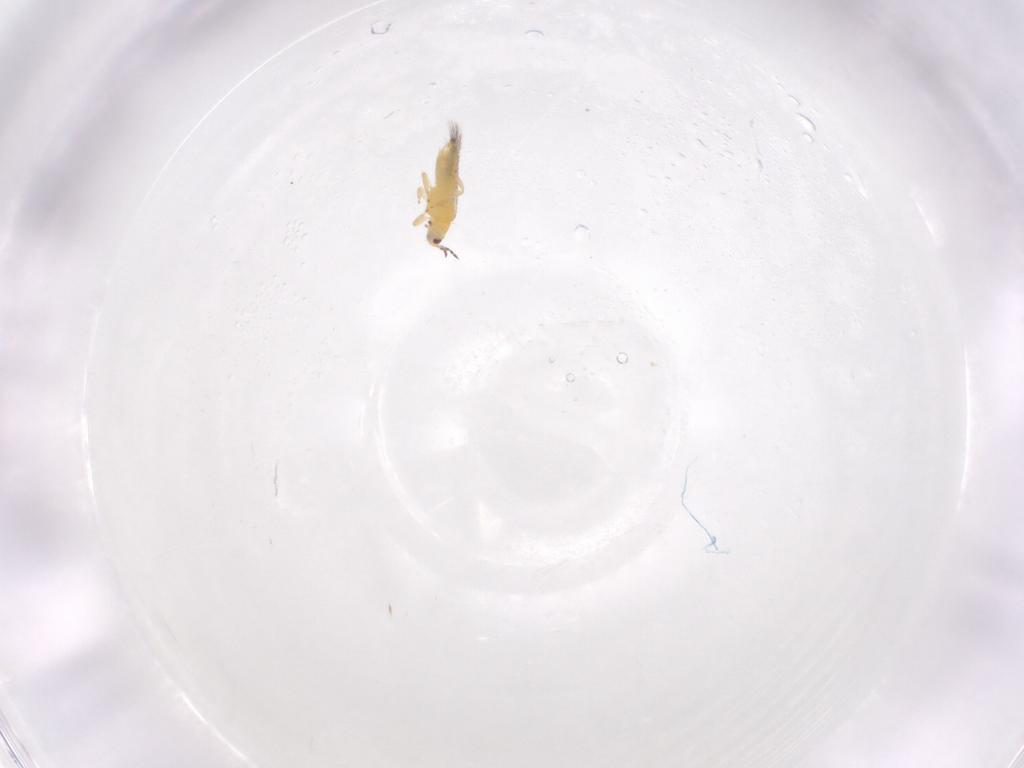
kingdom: Animalia
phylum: Arthropoda
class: Insecta
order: Thysanoptera
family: Thripidae
